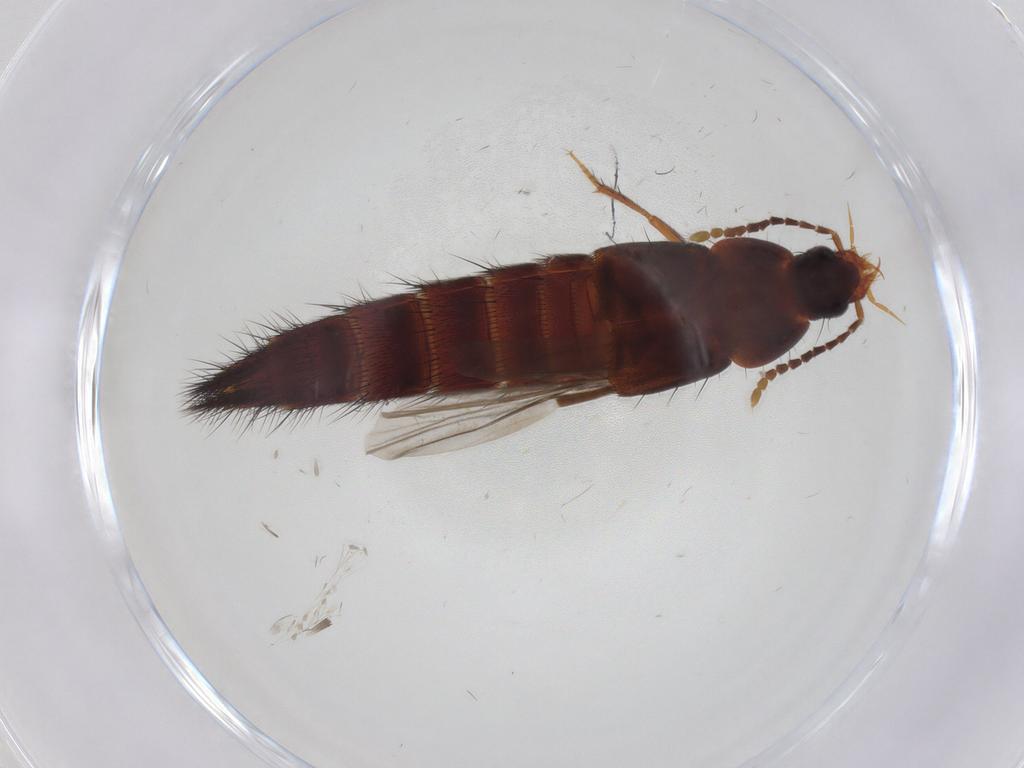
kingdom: Animalia
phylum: Arthropoda
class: Insecta
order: Coleoptera
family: Staphylinidae
